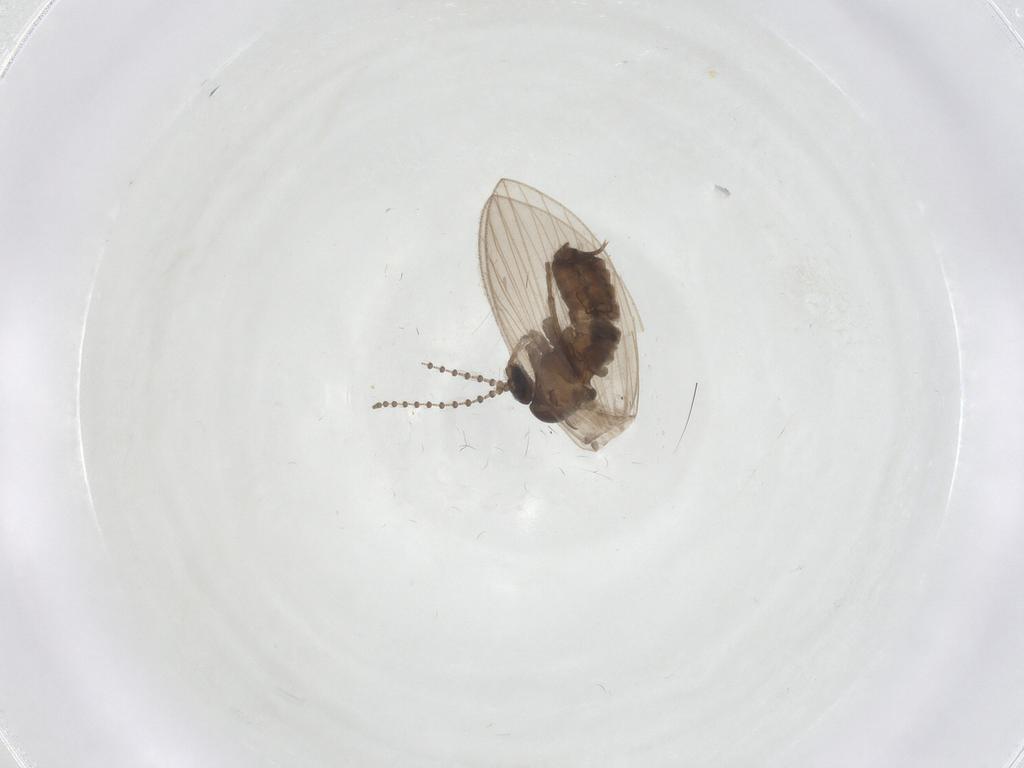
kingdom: Animalia
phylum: Arthropoda
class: Insecta
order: Diptera
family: Psychodidae
